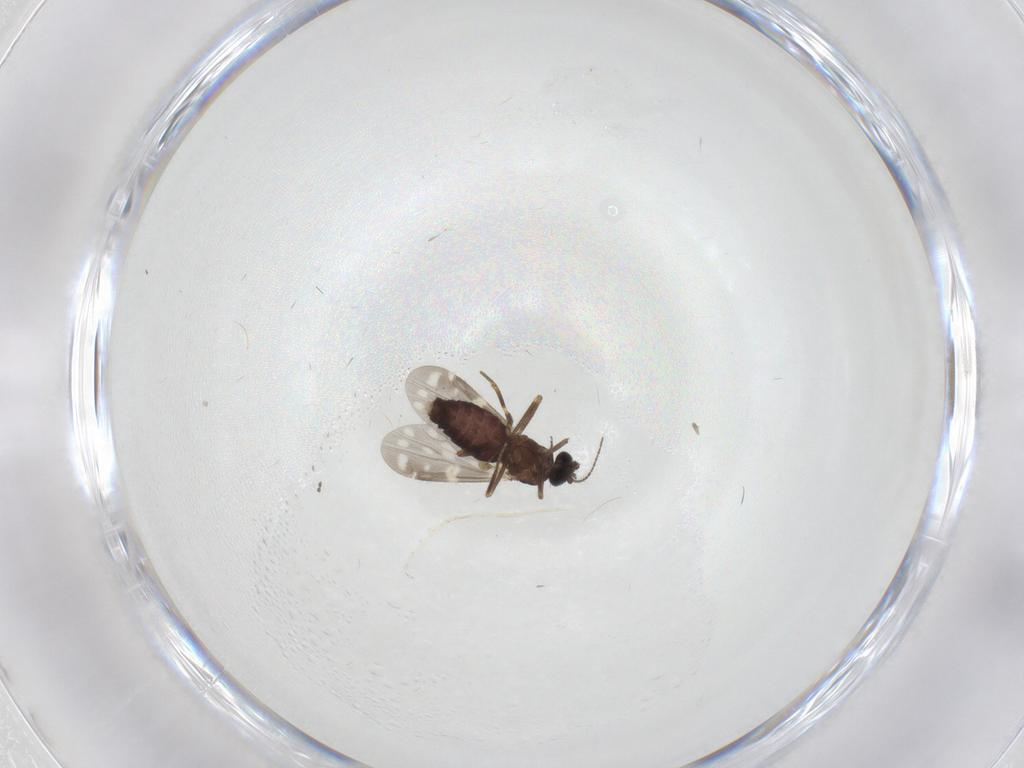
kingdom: Animalia
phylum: Arthropoda
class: Insecta
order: Diptera
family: Ceratopogonidae
